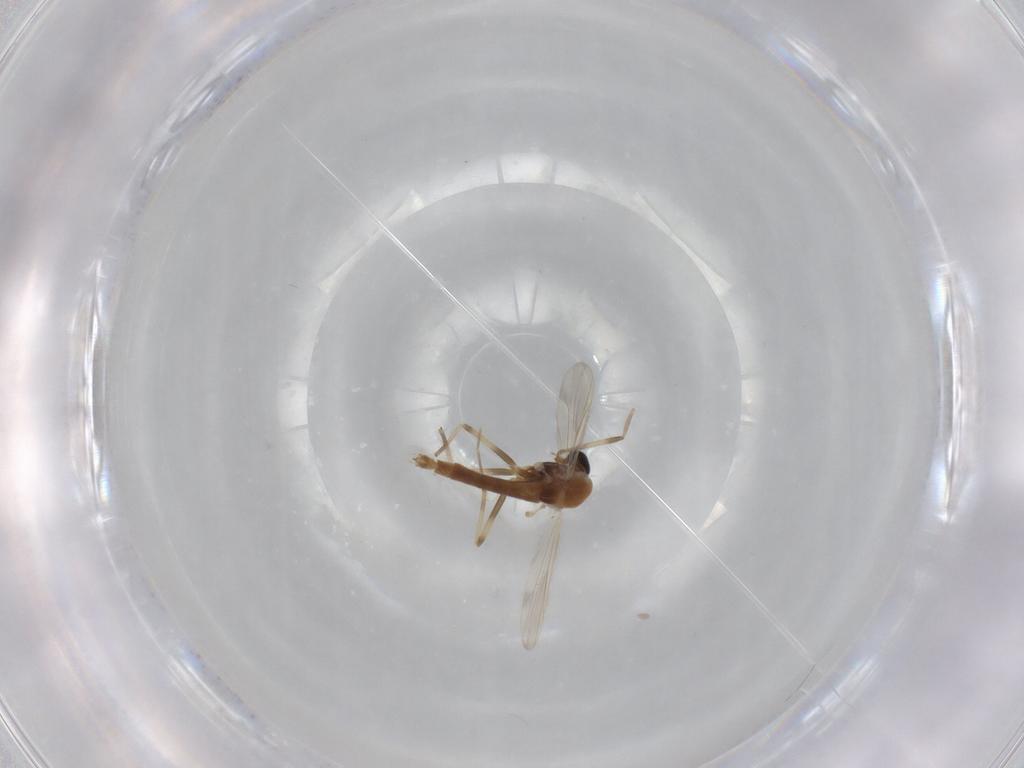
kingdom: Animalia
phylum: Arthropoda
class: Insecta
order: Diptera
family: Chironomidae
